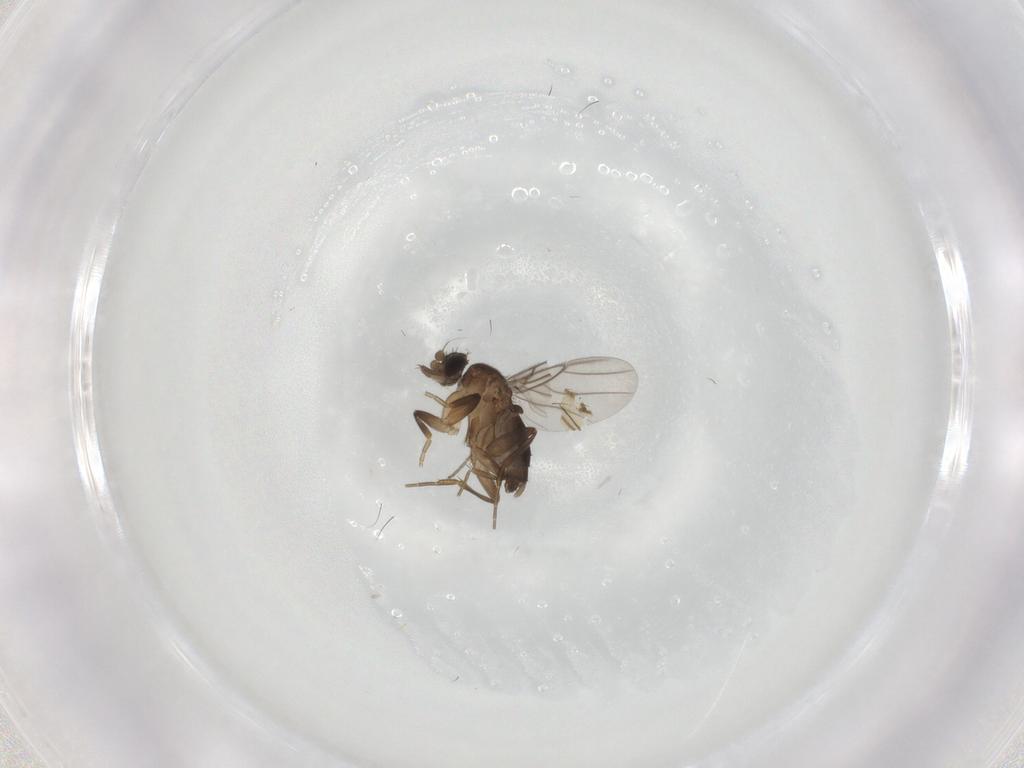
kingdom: Animalia
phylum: Arthropoda
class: Insecta
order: Diptera
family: Phoridae
